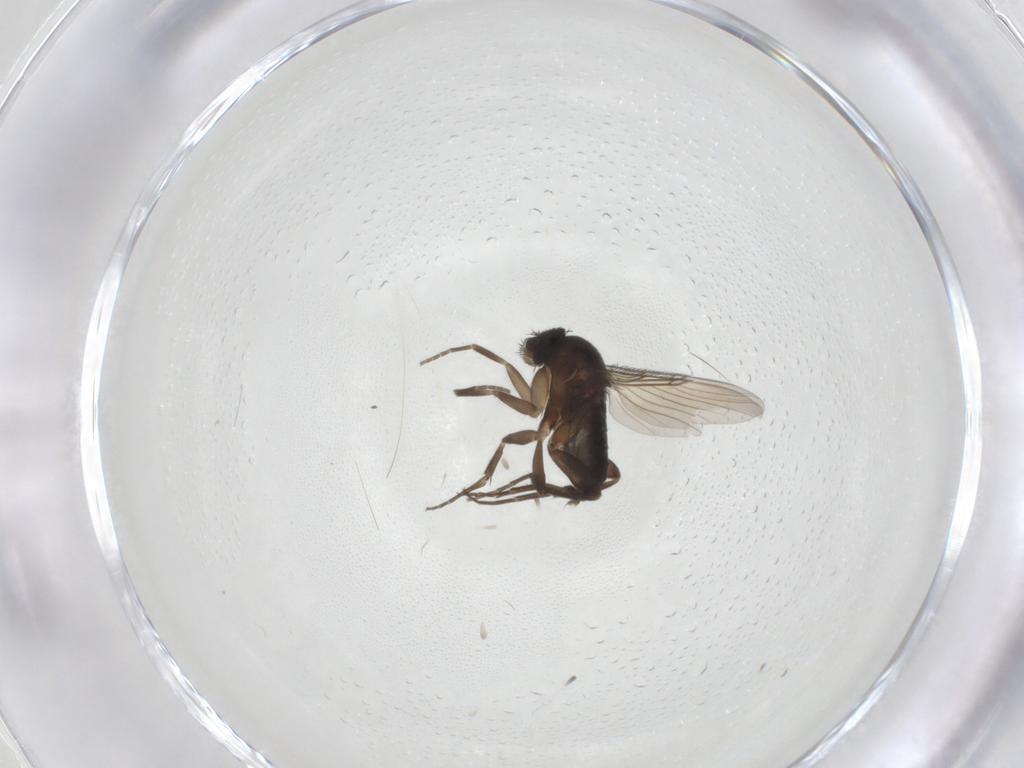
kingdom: Animalia
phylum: Arthropoda
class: Insecta
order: Diptera
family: Phoridae
